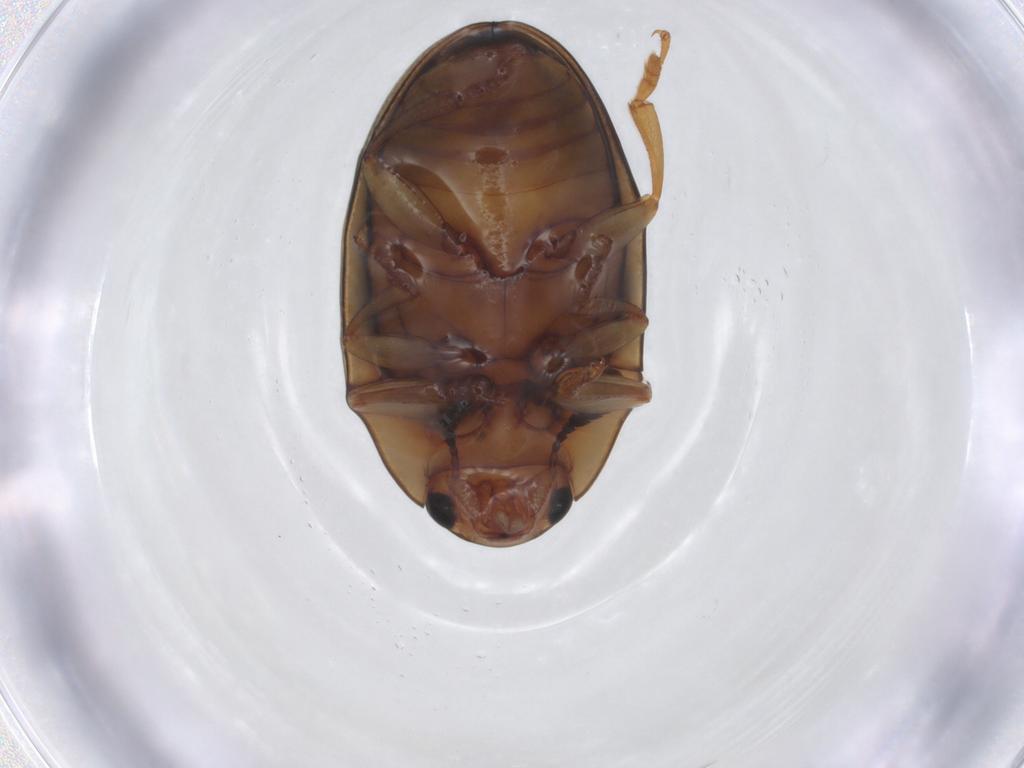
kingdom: Animalia
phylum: Arthropoda
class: Insecta
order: Coleoptera
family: Erotylidae
